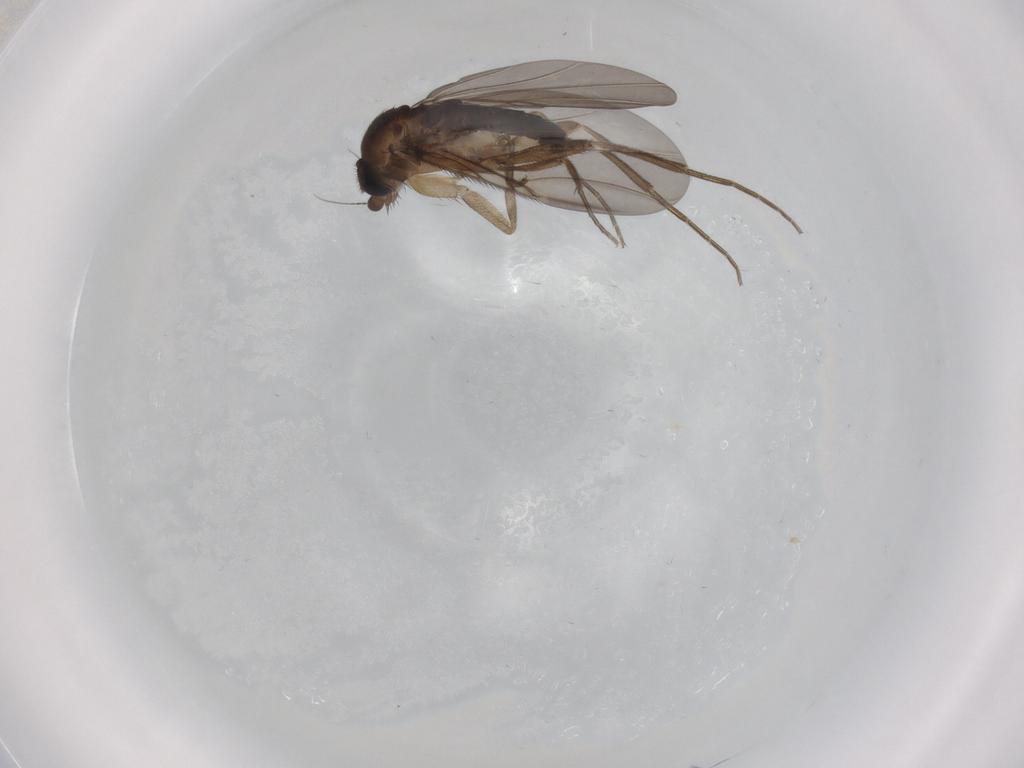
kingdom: Animalia
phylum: Arthropoda
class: Insecta
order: Diptera
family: Phoridae
